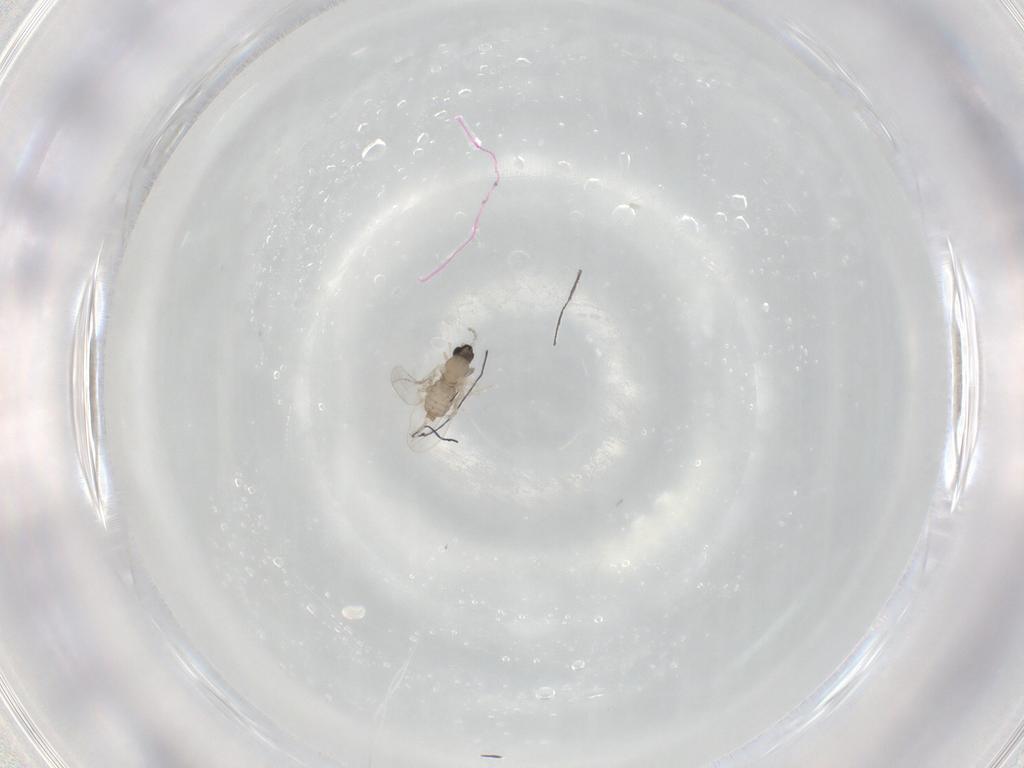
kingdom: Animalia
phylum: Arthropoda
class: Insecta
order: Diptera
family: Cecidomyiidae
